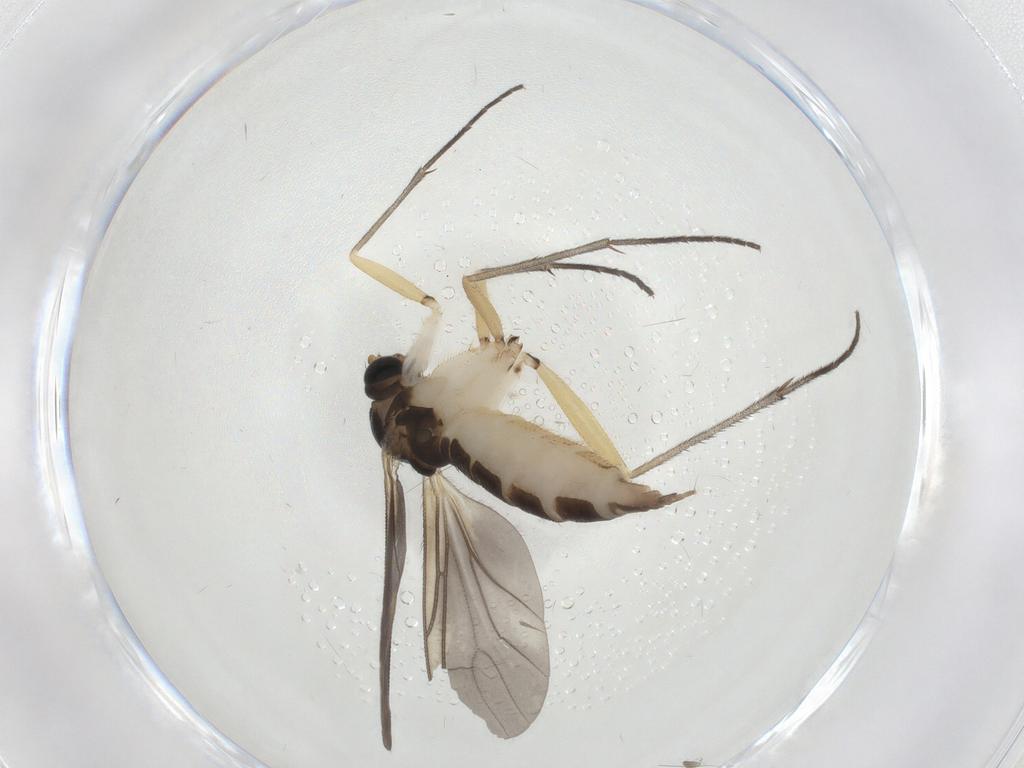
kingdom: Animalia
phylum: Arthropoda
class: Insecta
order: Diptera
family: Sciaridae
